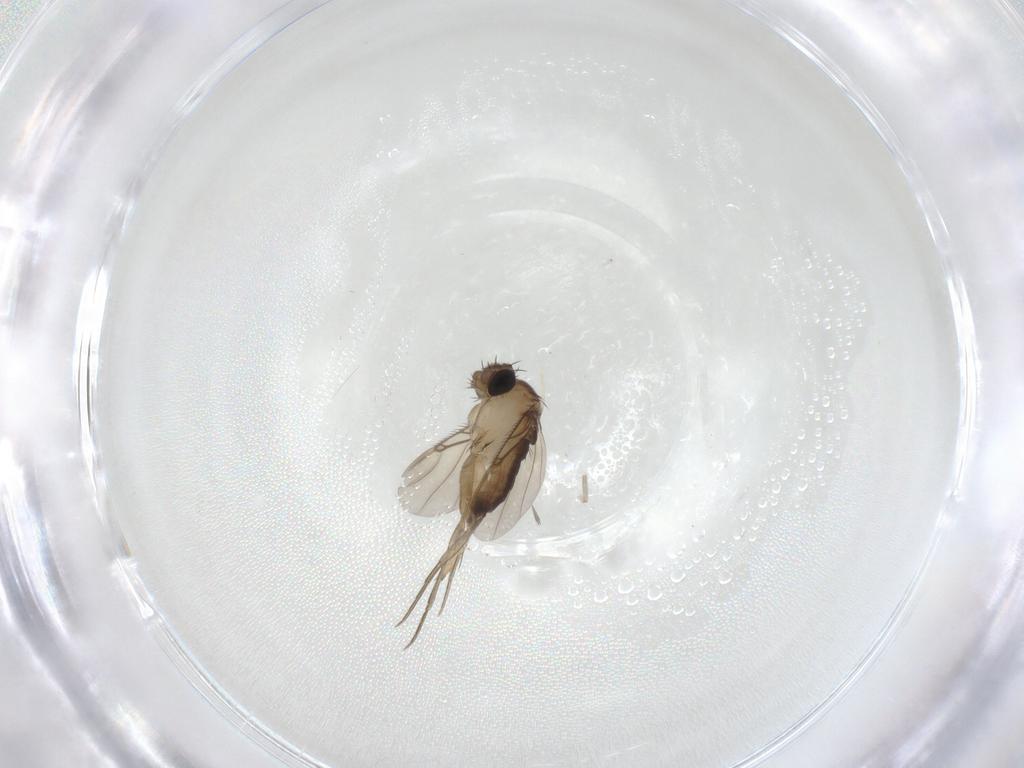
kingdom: Animalia
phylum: Arthropoda
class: Insecta
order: Diptera
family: Phoridae
